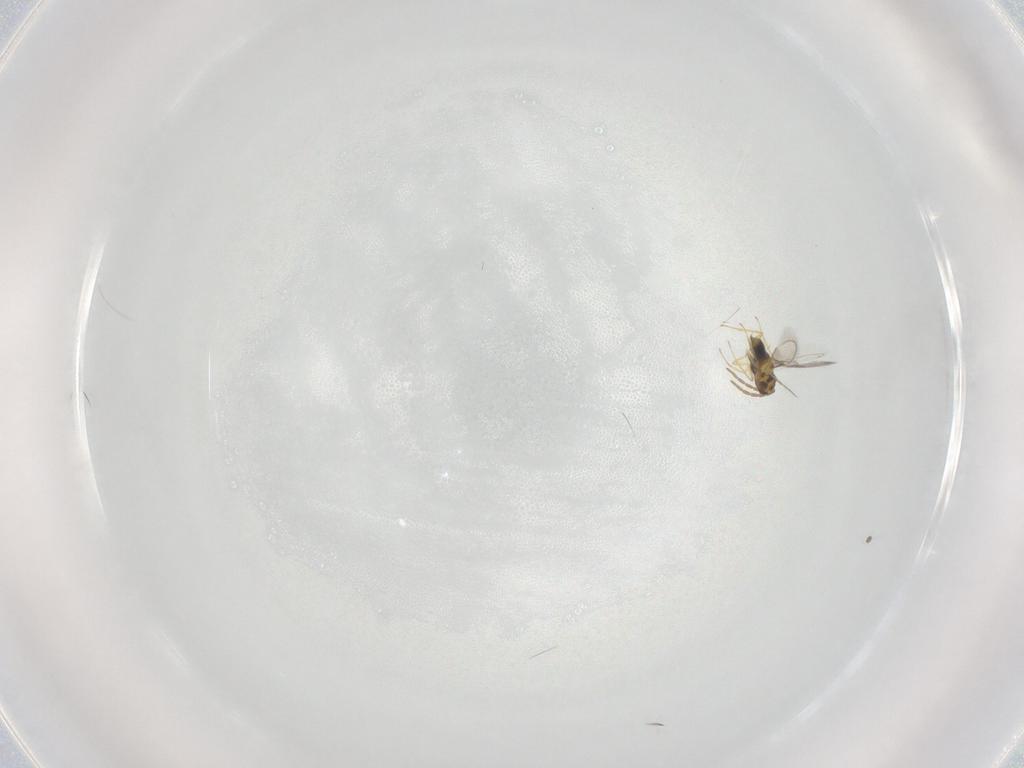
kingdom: Animalia
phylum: Arthropoda
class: Insecta
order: Hymenoptera
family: Aphelinidae
